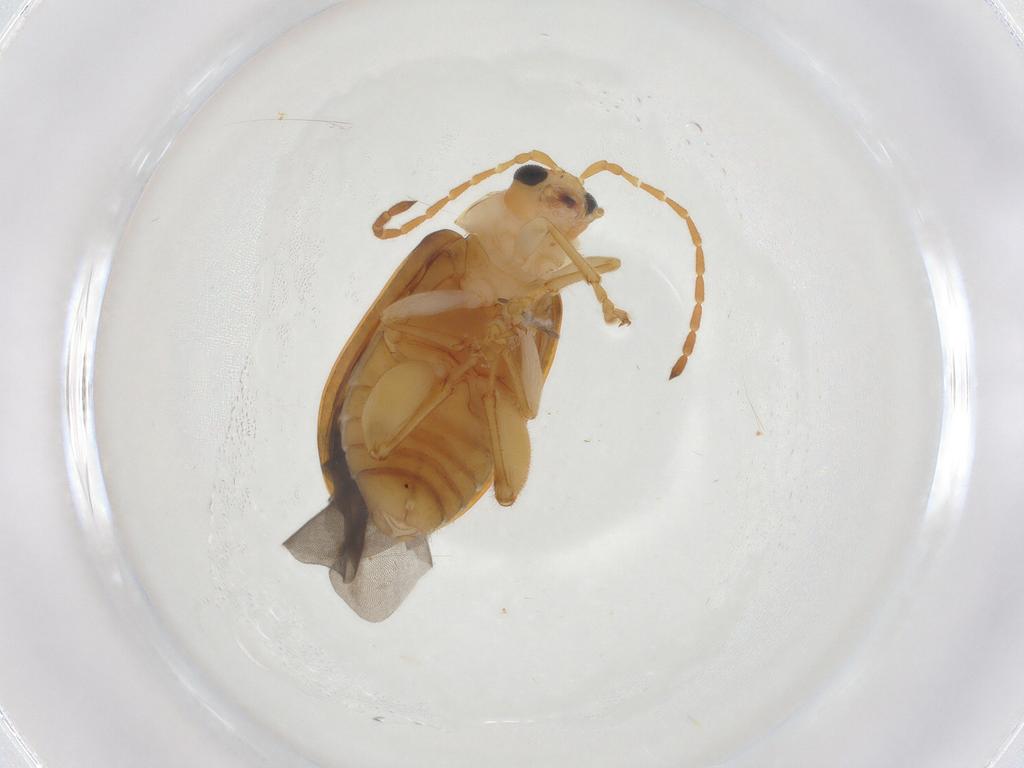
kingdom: Animalia
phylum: Arthropoda
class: Insecta
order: Coleoptera
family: Chrysomelidae
